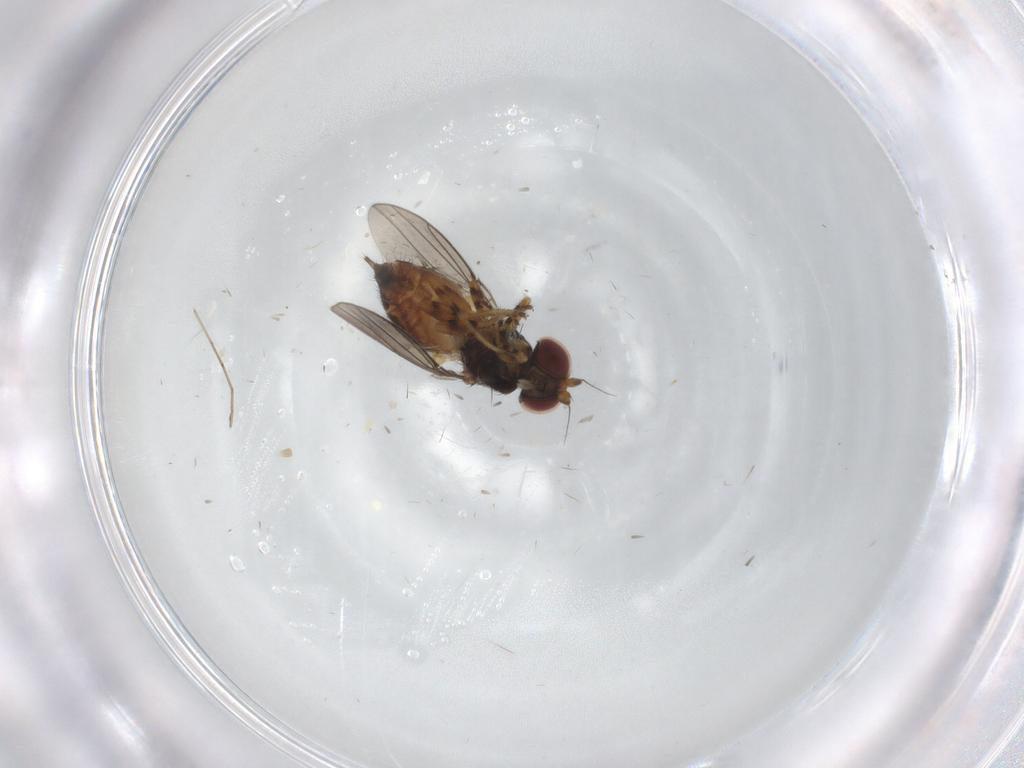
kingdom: Animalia
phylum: Arthropoda
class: Insecta
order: Diptera
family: Chloropidae
